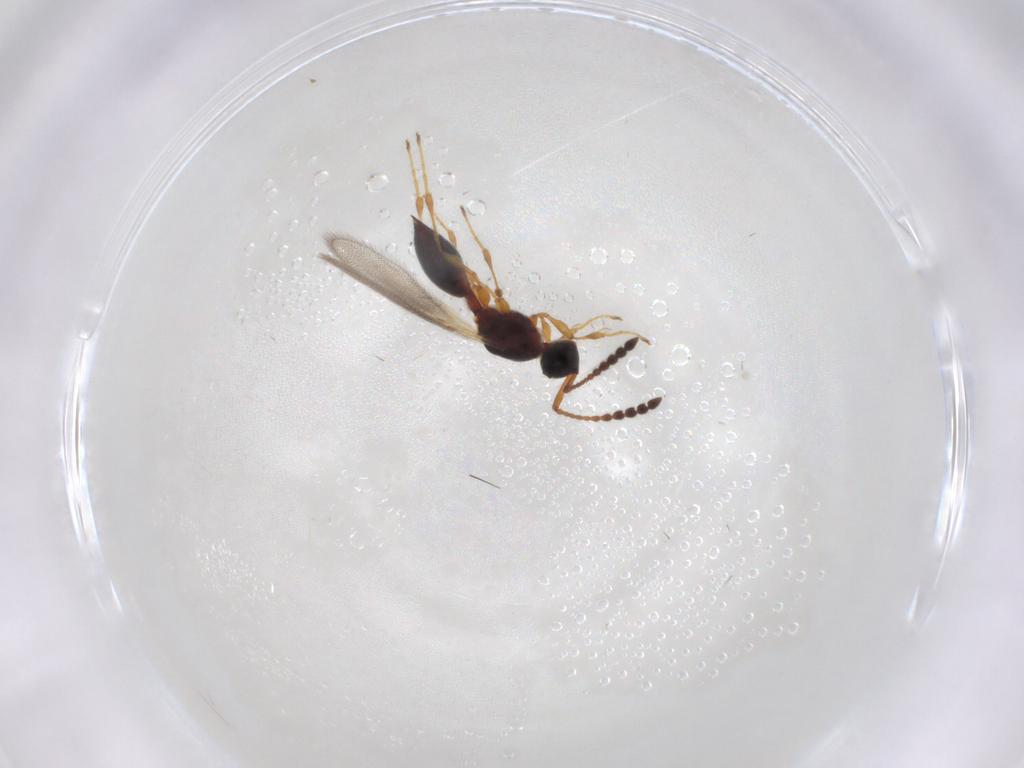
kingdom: Animalia
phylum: Arthropoda
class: Insecta
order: Hymenoptera
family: Diapriidae
